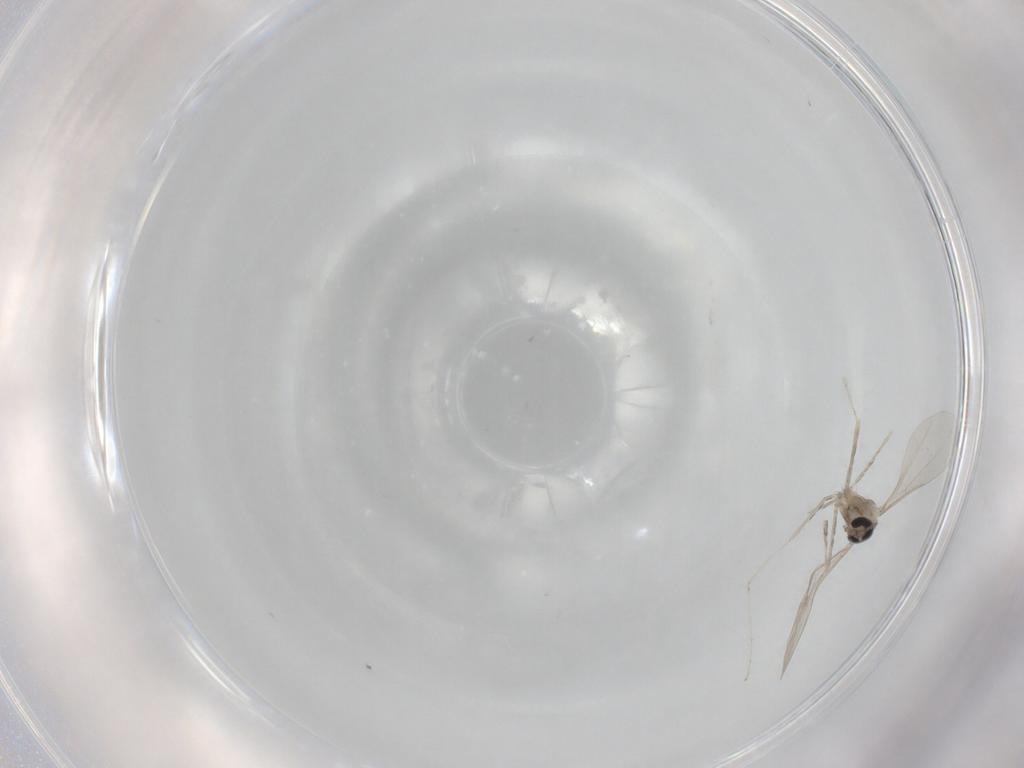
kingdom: Animalia
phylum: Arthropoda
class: Insecta
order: Diptera
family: Cecidomyiidae
